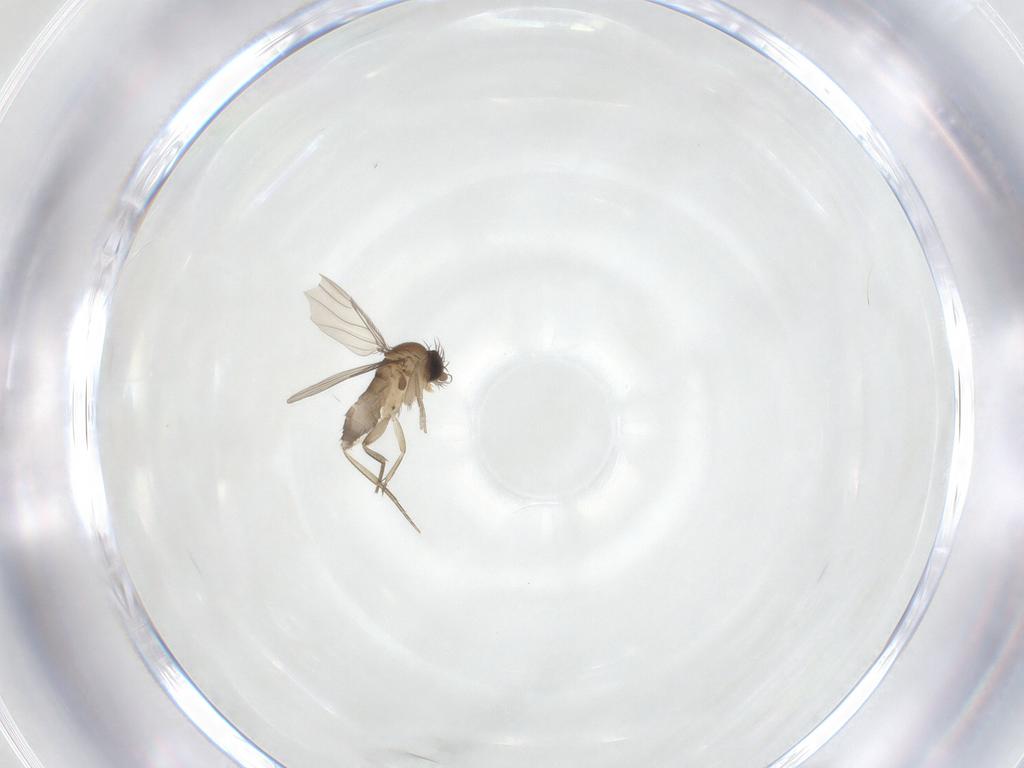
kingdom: Animalia
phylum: Arthropoda
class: Insecta
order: Diptera
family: Phoridae
